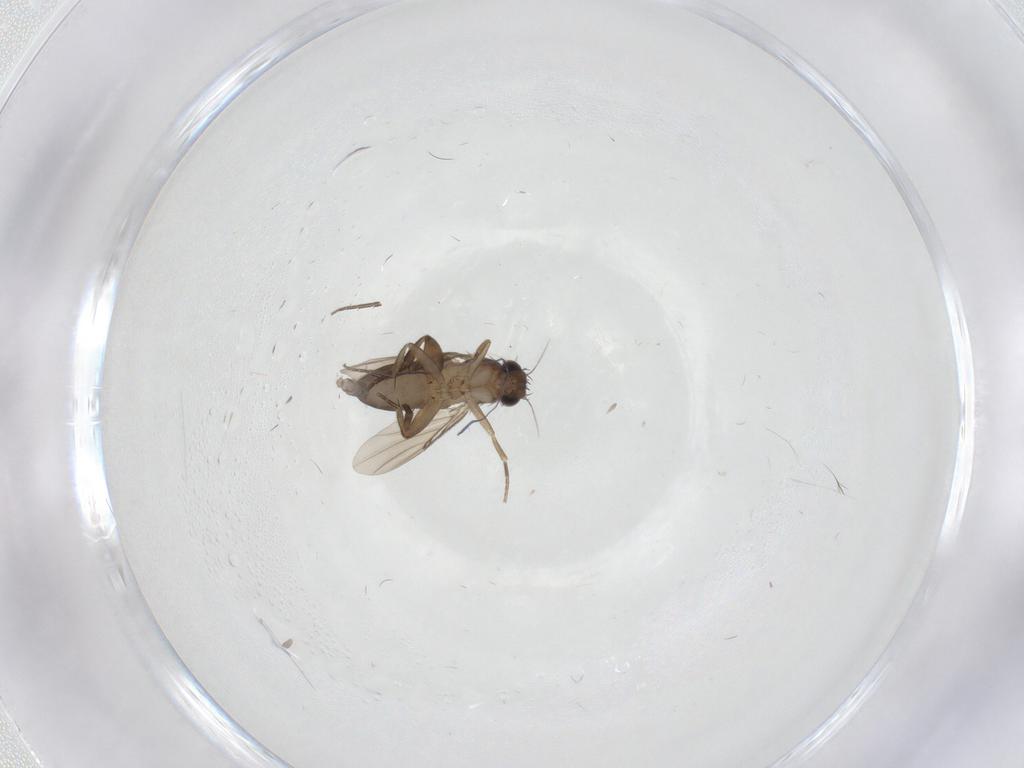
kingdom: Animalia
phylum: Arthropoda
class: Insecta
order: Diptera
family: Phoridae
